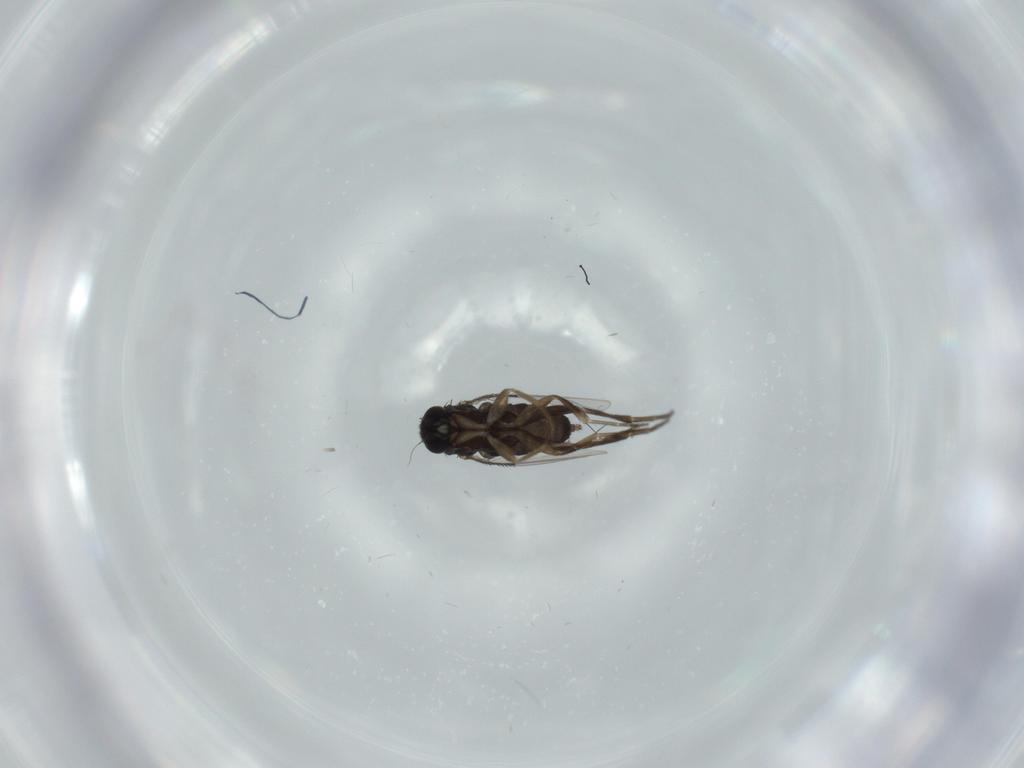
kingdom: Animalia
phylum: Arthropoda
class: Insecta
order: Diptera
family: Phoridae
